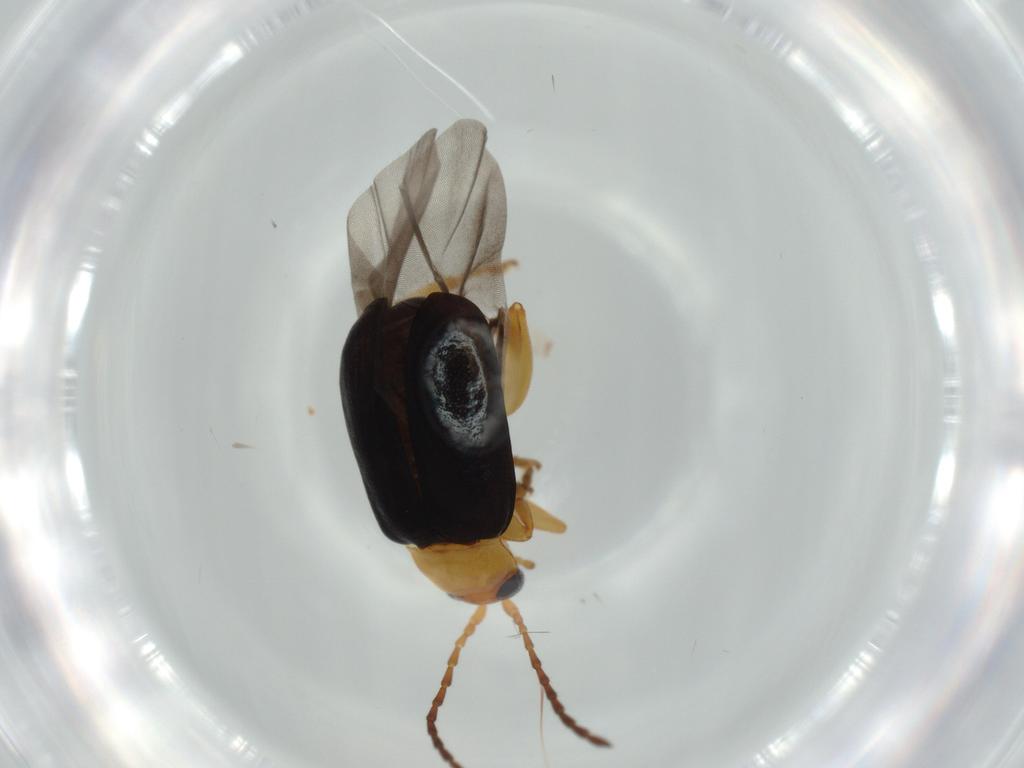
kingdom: Animalia
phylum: Arthropoda
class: Insecta
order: Coleoptera
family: Chrysomelidae
